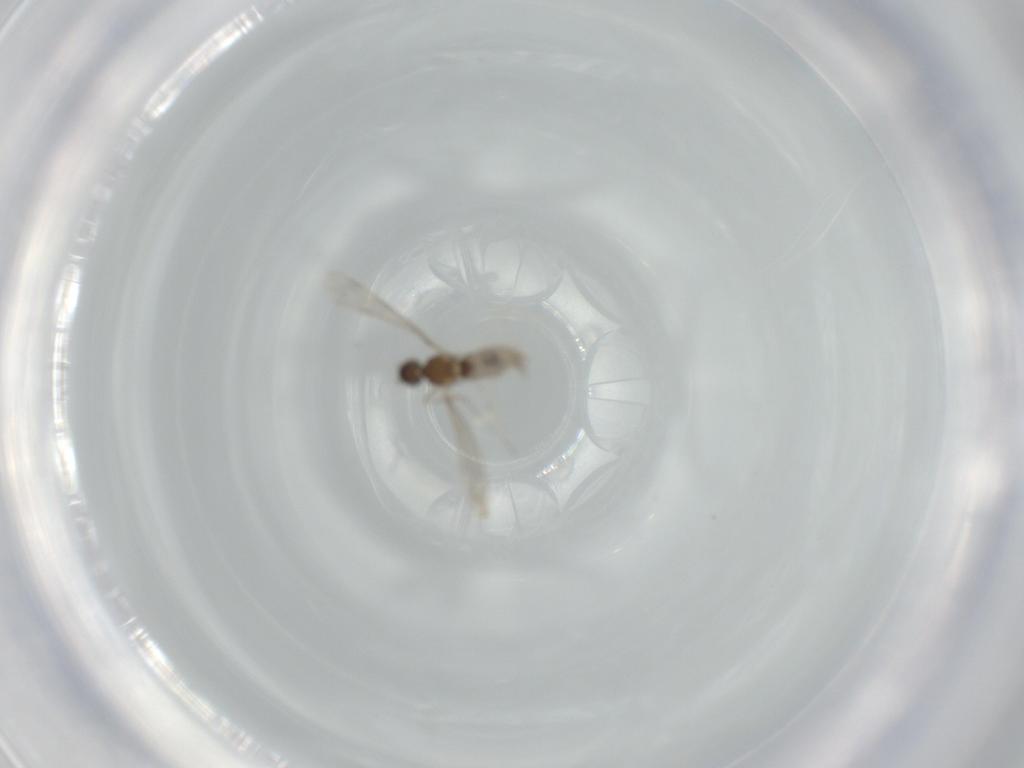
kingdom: Animalia
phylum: Arthropoda
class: Insecta
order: Diptera
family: Cecidomyiidae
